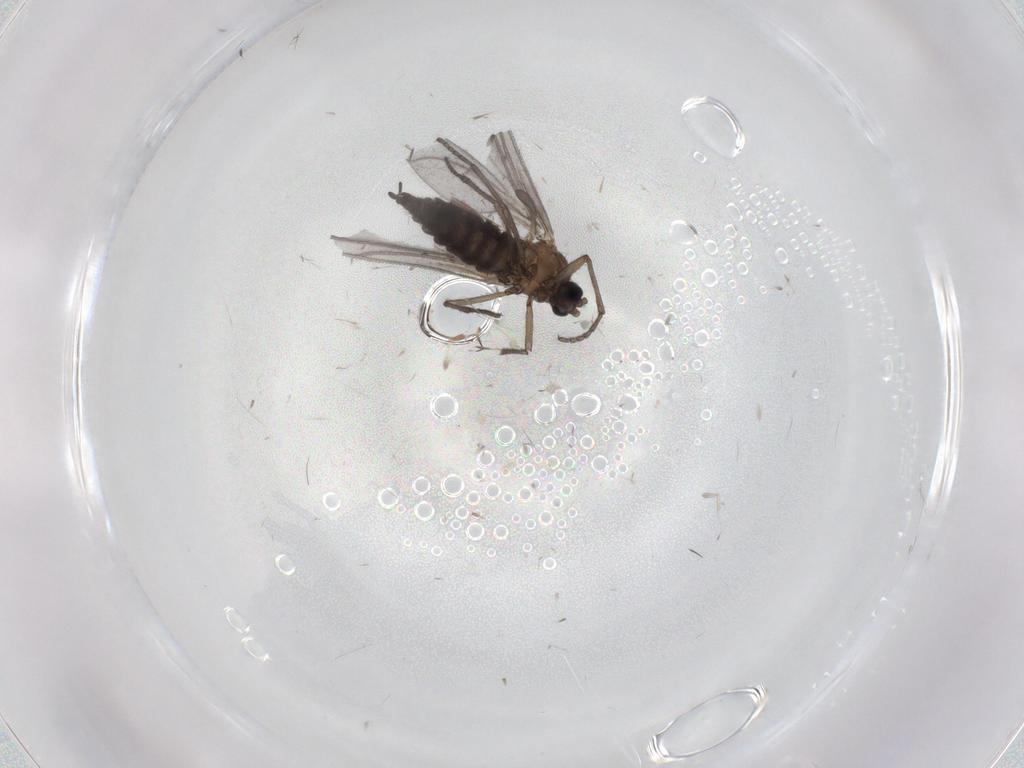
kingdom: Animalia
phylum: Arthropoda
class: Insecta
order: Diptera
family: Sciaridae
